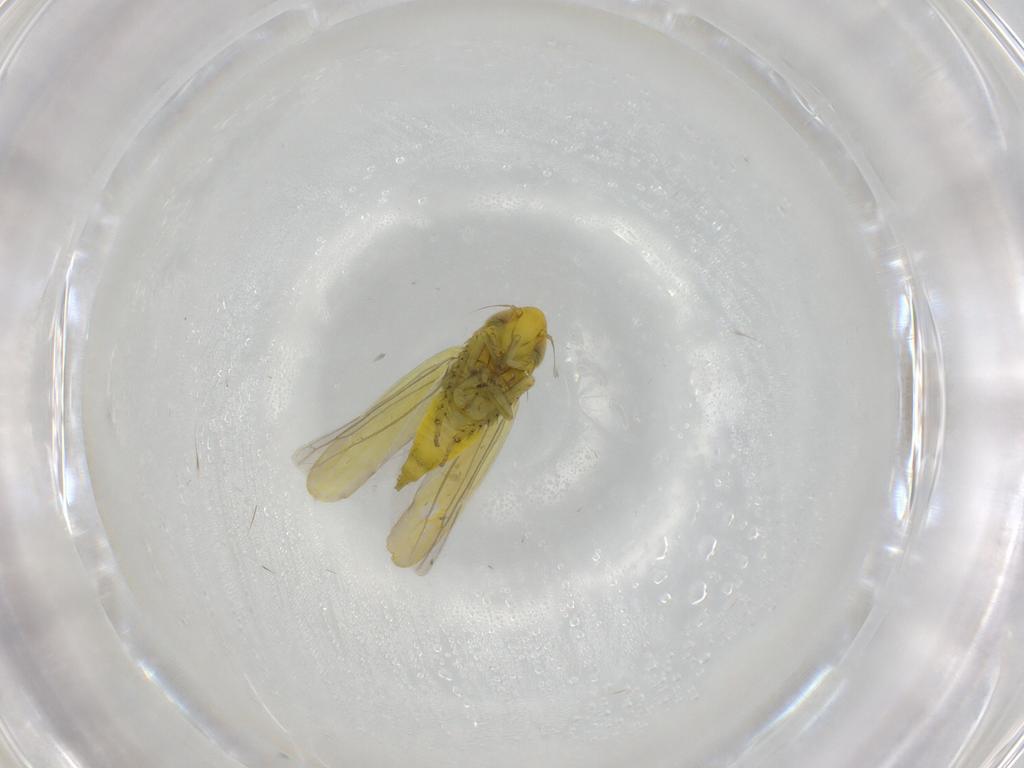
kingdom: Animalia
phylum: Arthropoda
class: Insecta
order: Hemiptera
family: Cicadellidae
